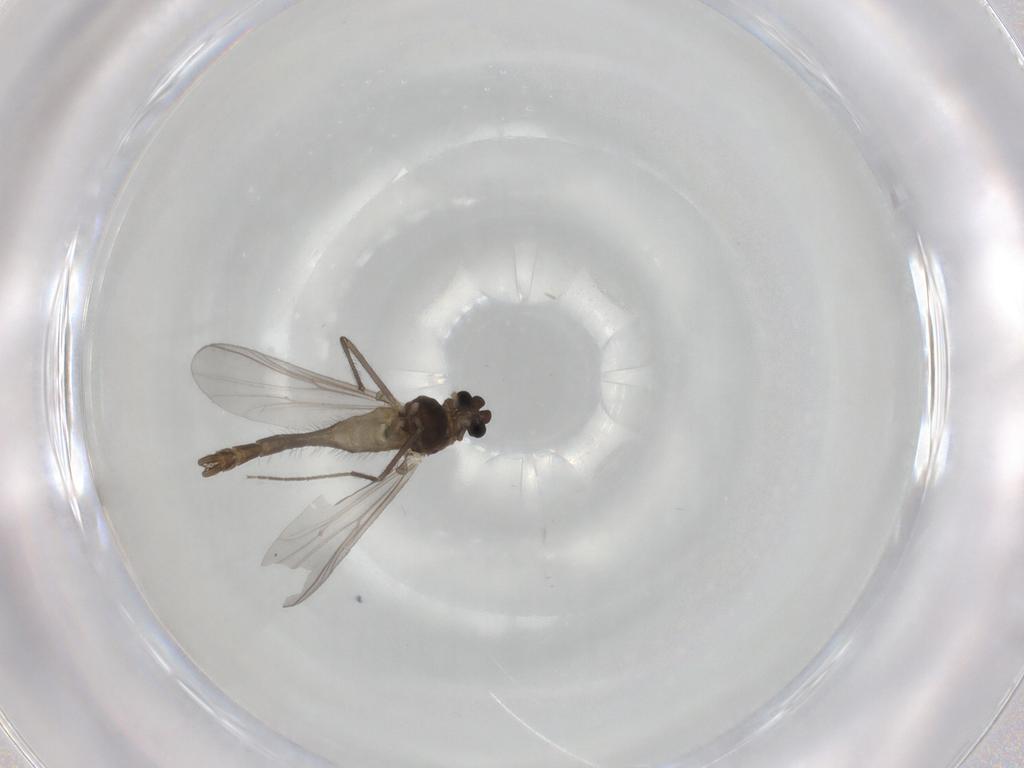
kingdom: Animalia
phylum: Arthropoda
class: Insecta
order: Diptera
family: Chironomidae
